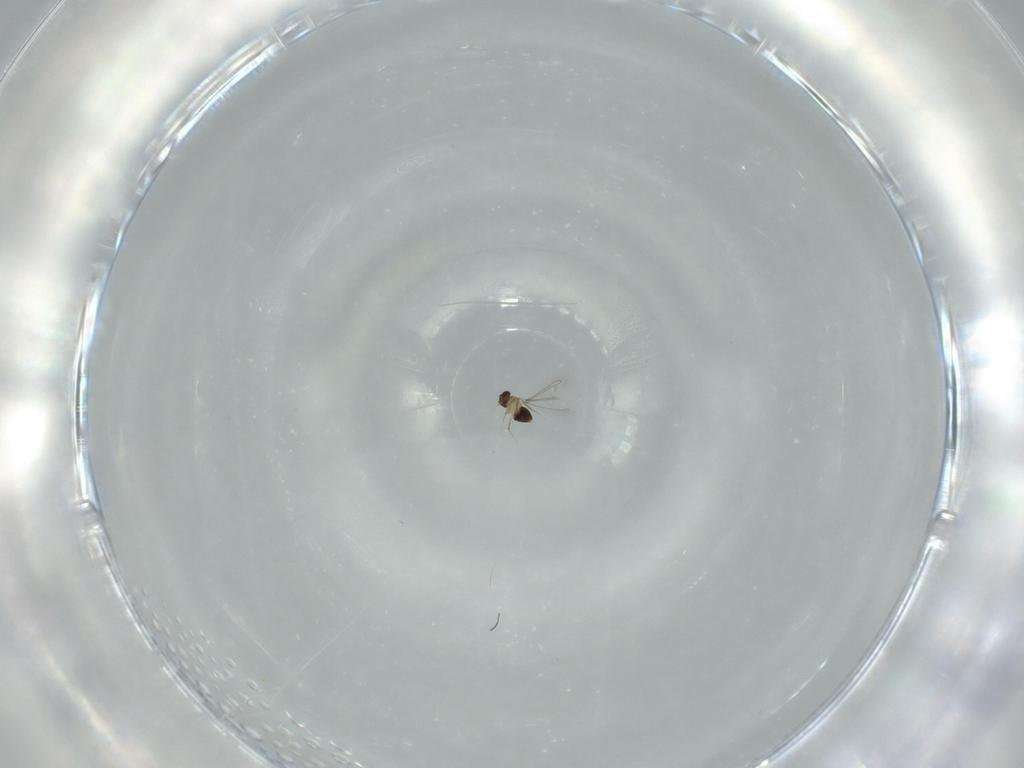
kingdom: Animalia
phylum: Arthropoda
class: Insecta
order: Hymenoptera
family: Mymaridae
